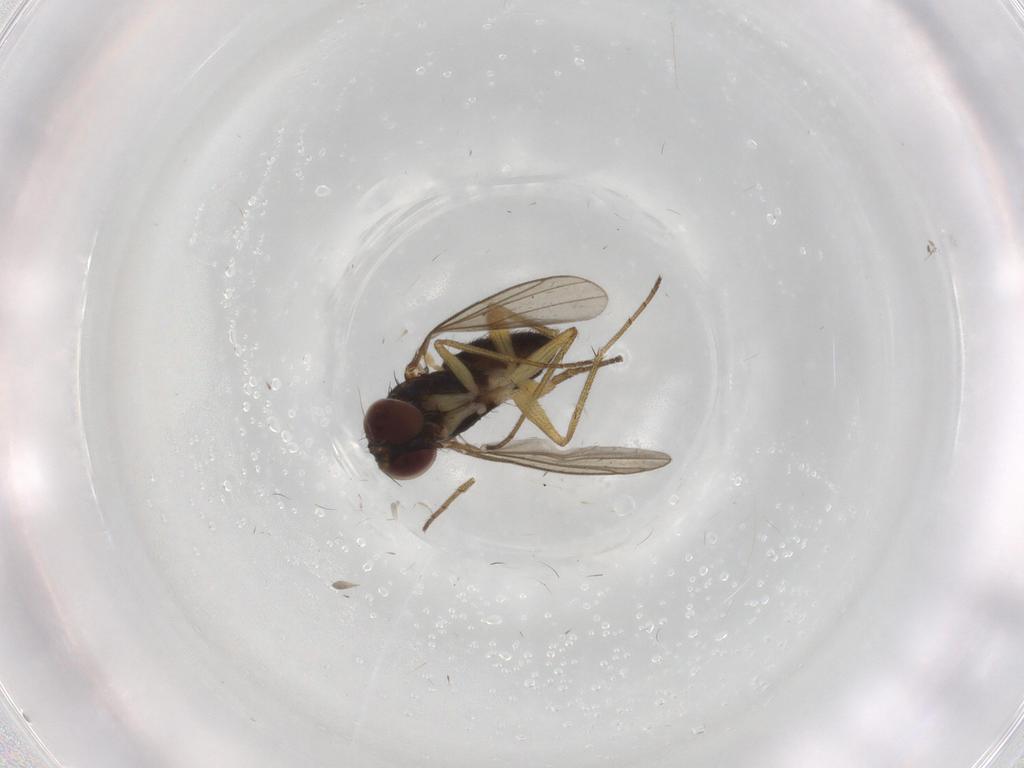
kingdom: Animalia
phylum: Arthropoda
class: Insecta
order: Diptera
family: Dolichopodidae
